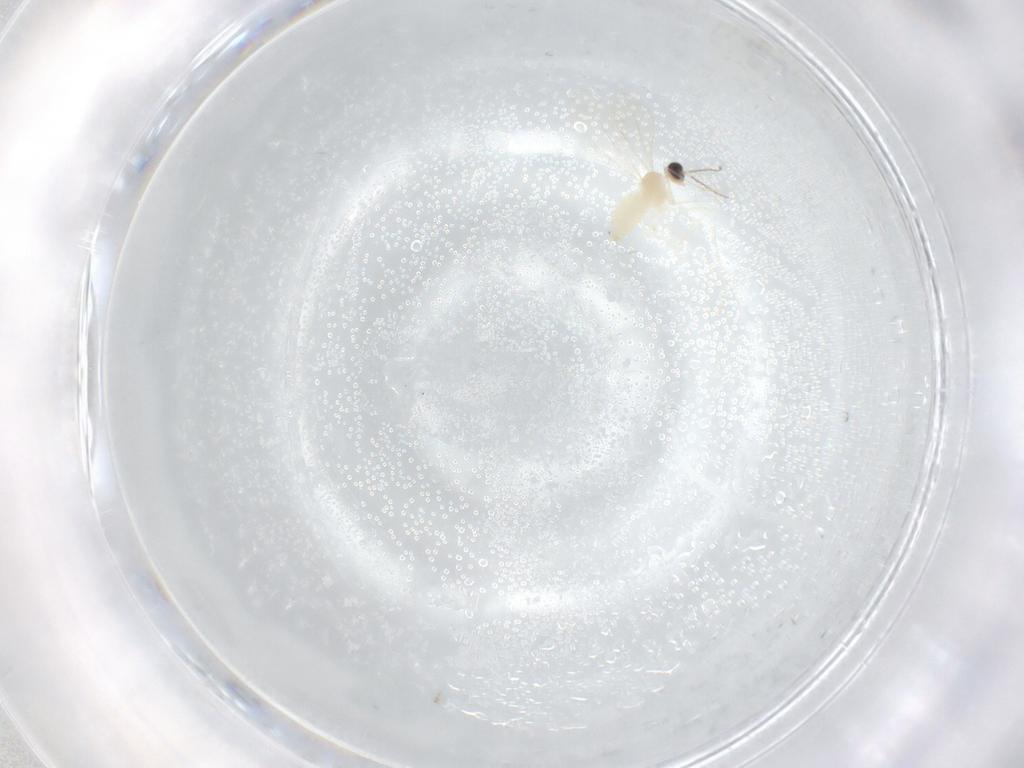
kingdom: Animalia
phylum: Arthropoda
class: Insecta
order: Diptera
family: Cecidomyiidae
